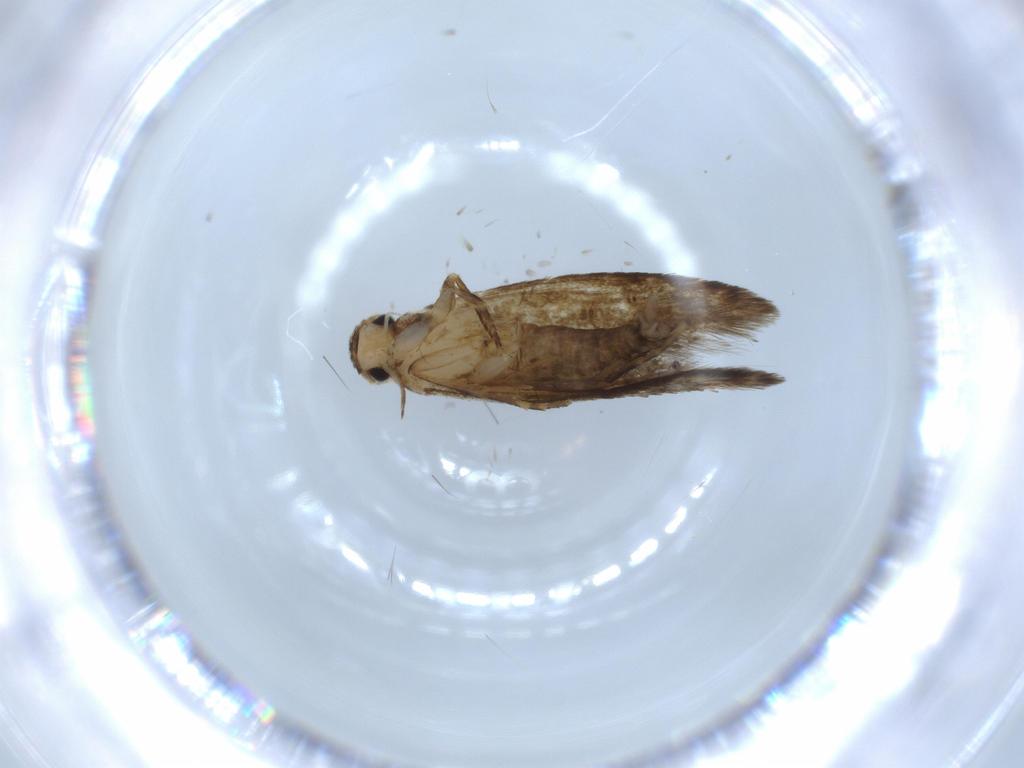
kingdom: Animalia
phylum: Arthropoda
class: Insecta
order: Lepidoptera
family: Tineidae
